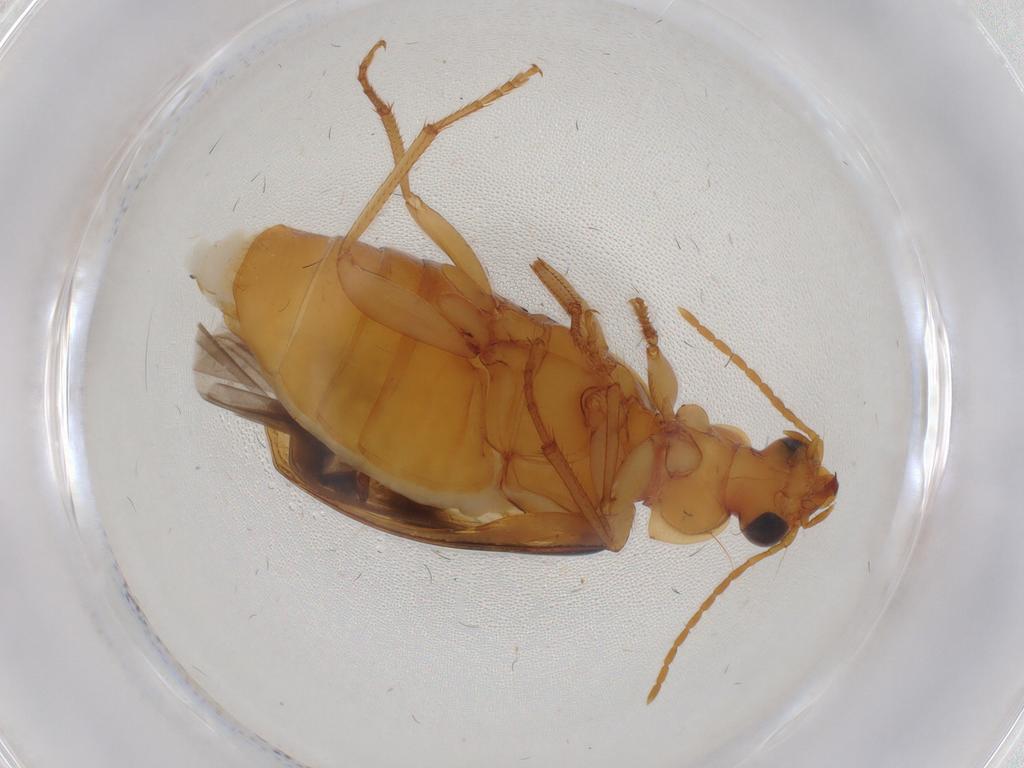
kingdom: Animalia
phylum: Arthropoda
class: Insecta
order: Coleoptera
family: Carabidae
